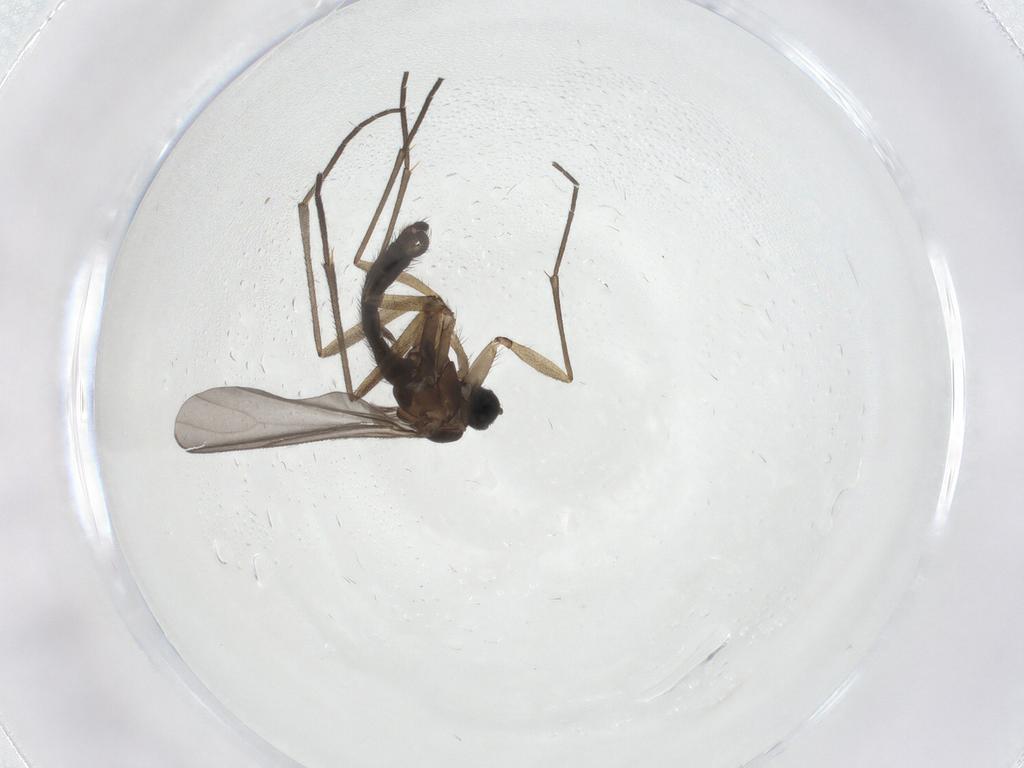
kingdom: Animalia
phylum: Arthropoda
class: Insecta
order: Diptera
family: Sciaridae
